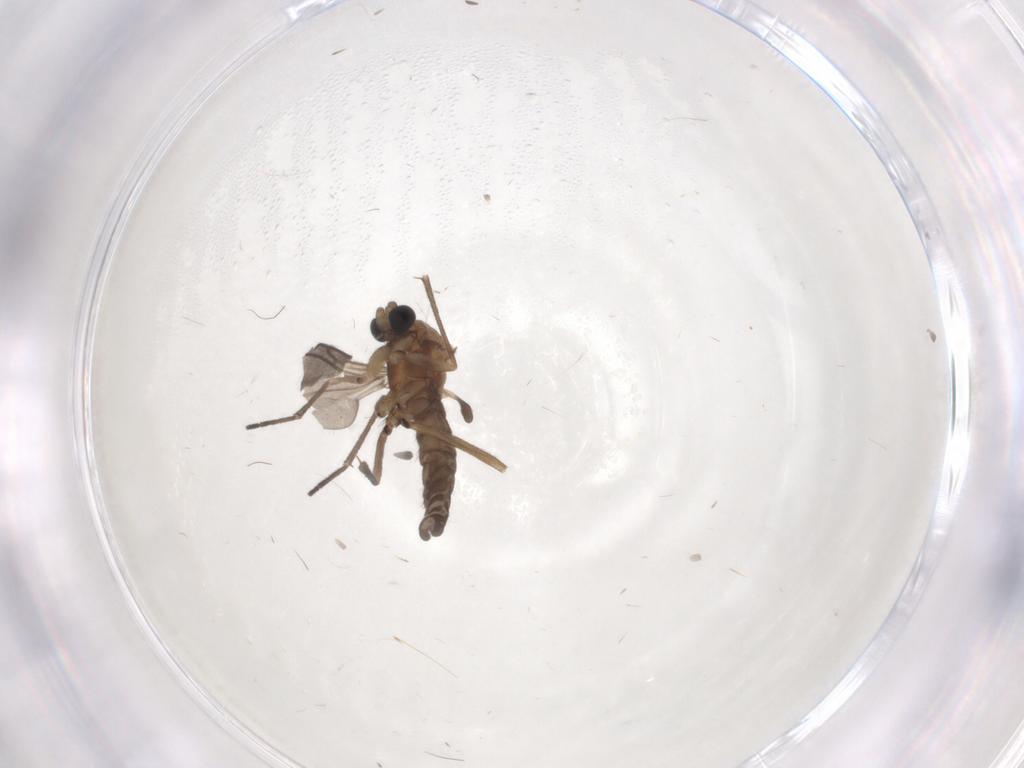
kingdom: Animalia
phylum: Arthropoda
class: Insecta
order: Diptera
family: Sciaridae
